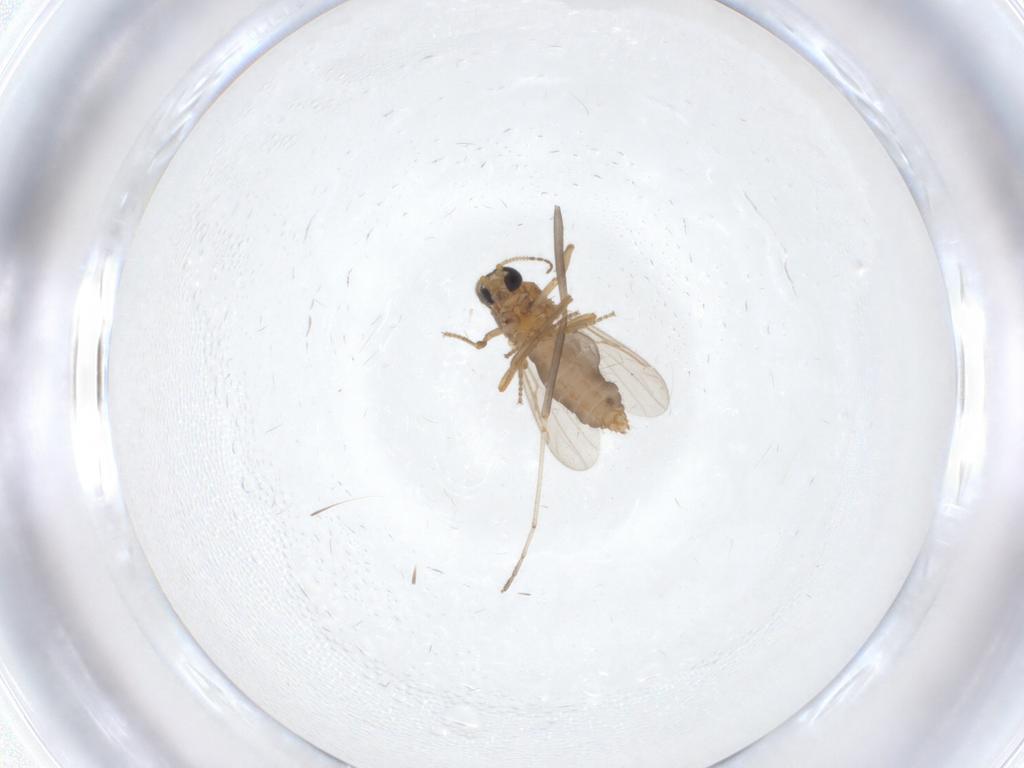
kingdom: Animalia
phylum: Arthropoda
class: Insecta
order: Diptera
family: Ceratopogonidae
